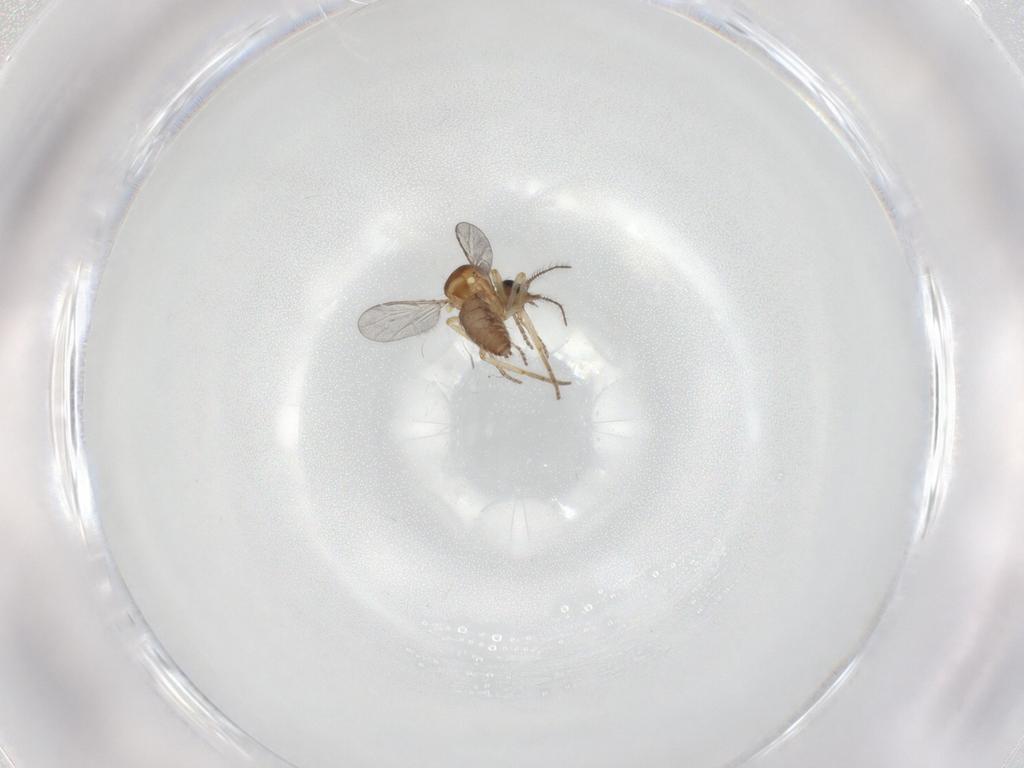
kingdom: Animalia
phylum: Arthropoda
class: Insecta
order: Diptera
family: Ceratopogonidae
